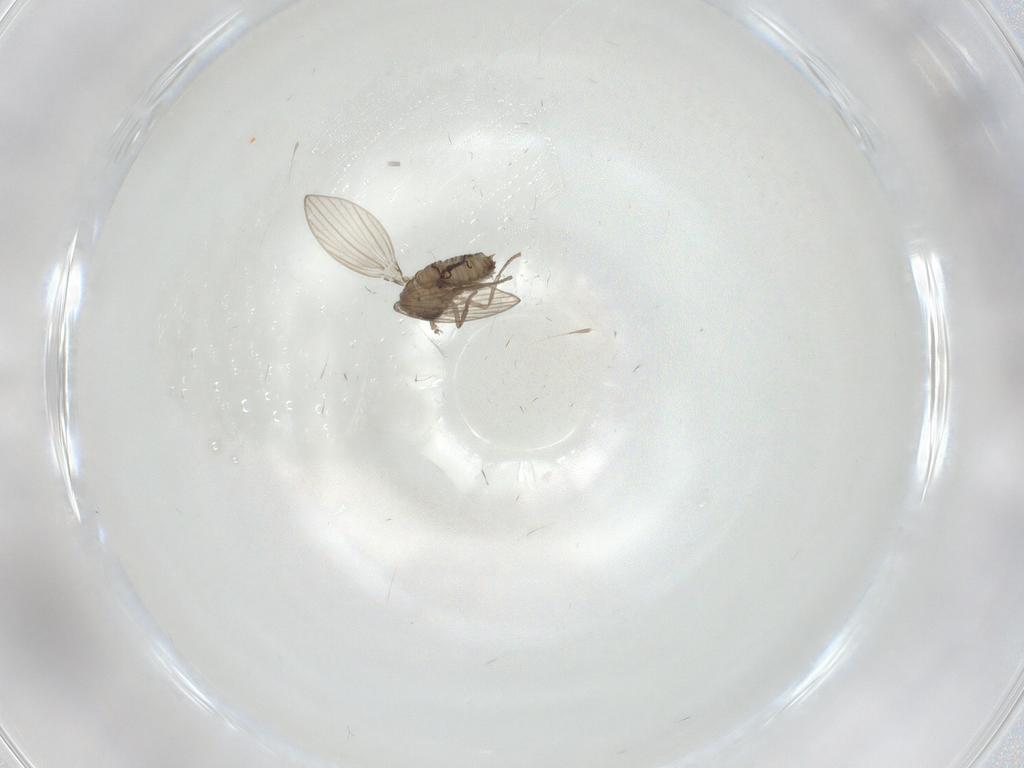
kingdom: Animalia
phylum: Arthropoda
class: Insecta
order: Diptera
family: Psychodidae
